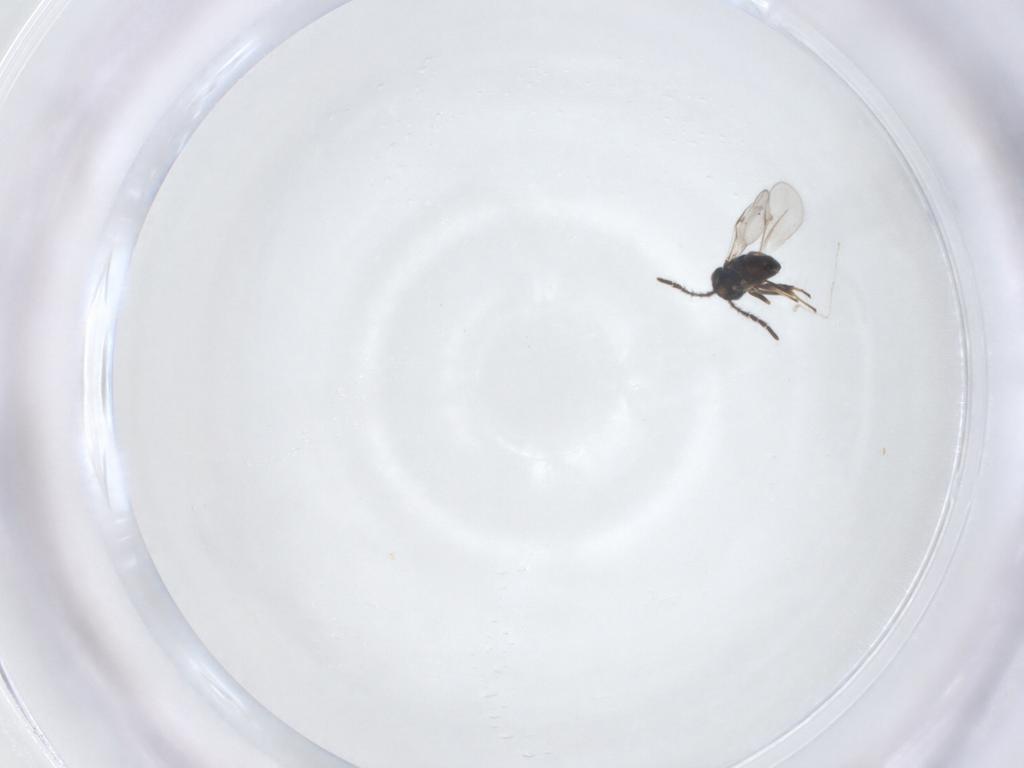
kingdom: Animalia
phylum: Arthropoda
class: Insecta
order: Hymenoptera
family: Encyrtidae
